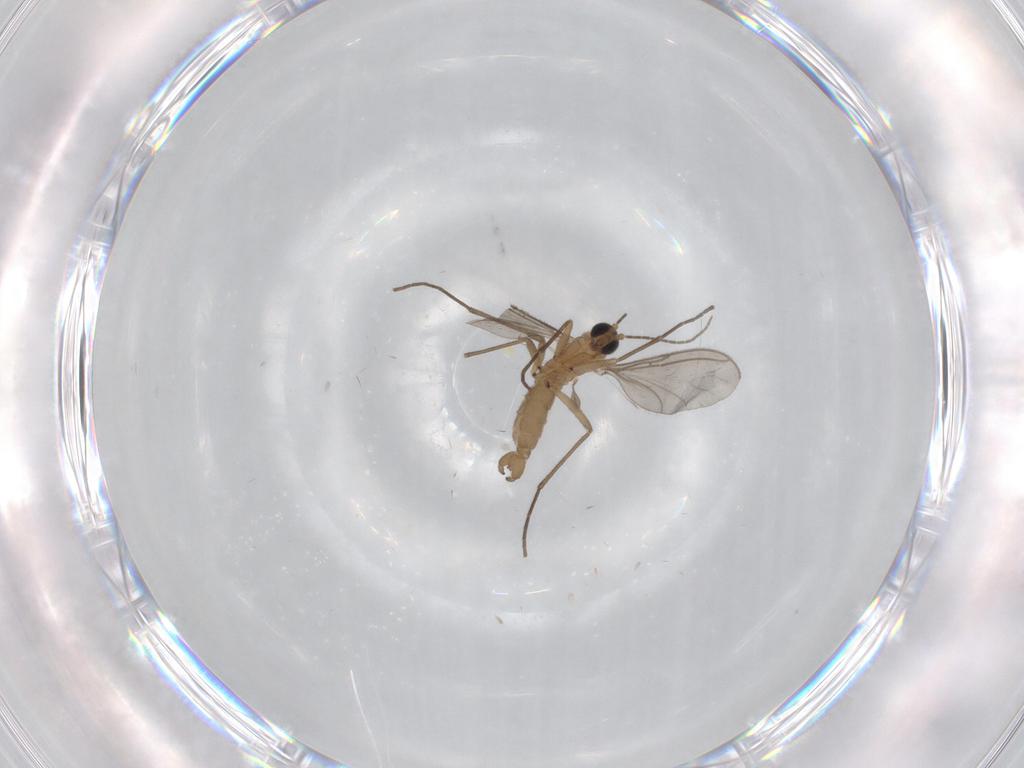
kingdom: Animalia
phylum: Arthropoda
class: Insecta
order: Diptera
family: Sciaridae
